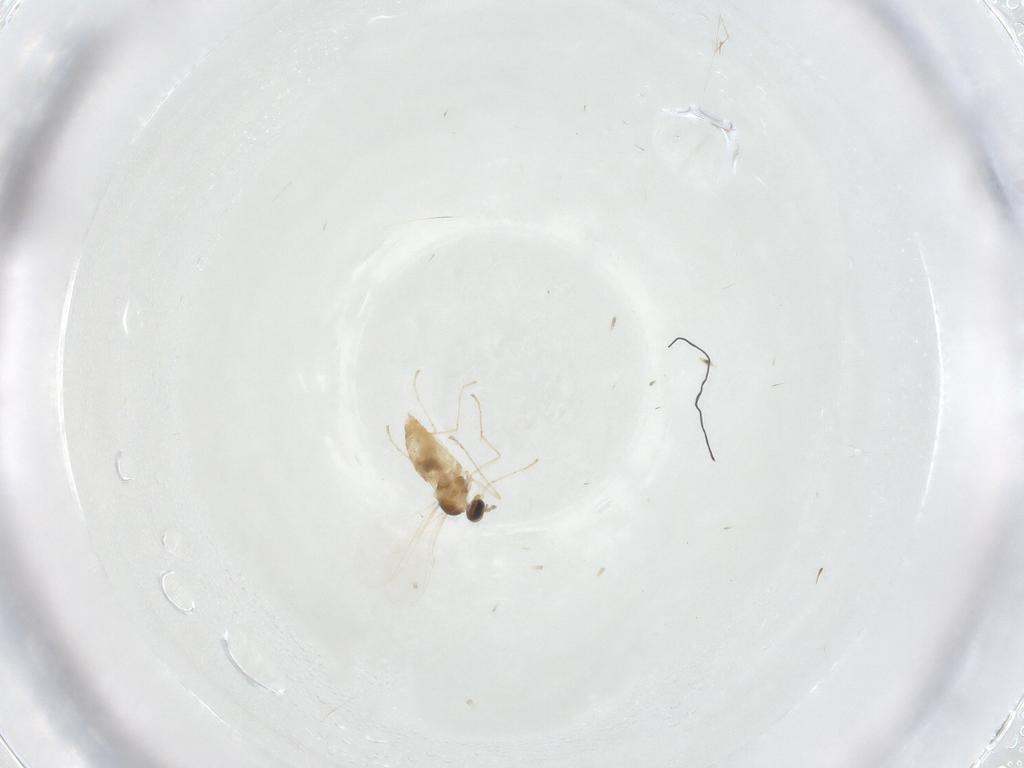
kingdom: Animalia
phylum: Arthropoda
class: Insecta
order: Diptera
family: Cecidomyiidae
